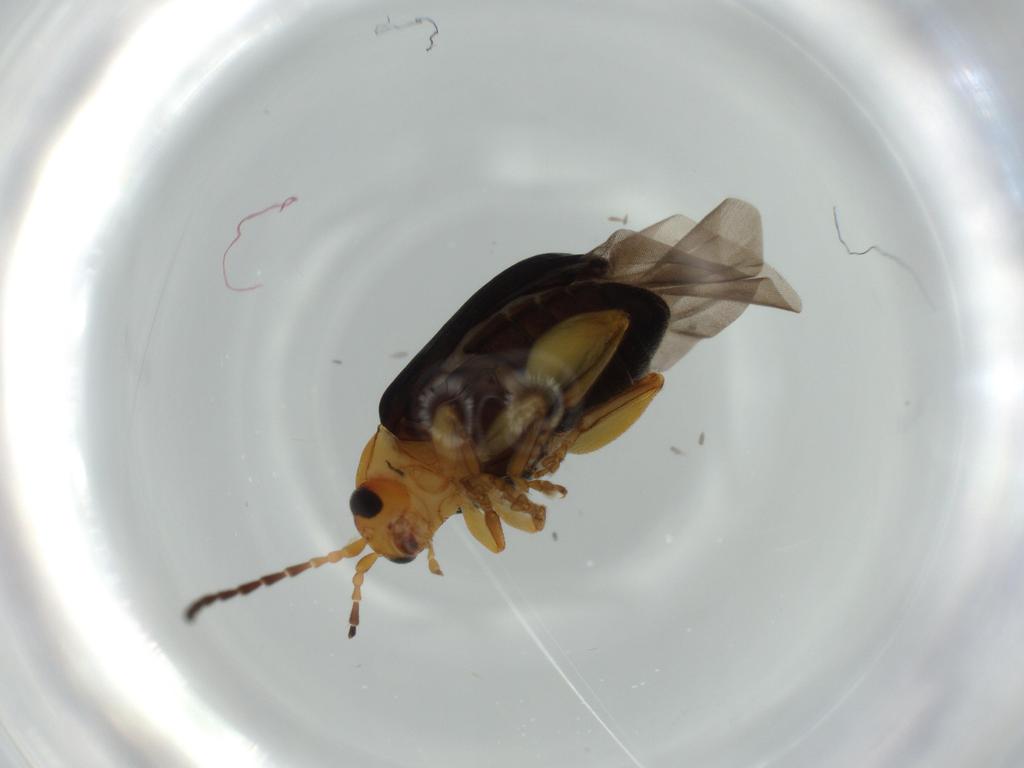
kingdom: Animalia
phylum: Arthropoda
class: Insecta
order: Coleoptera
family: Chrysomelidae
